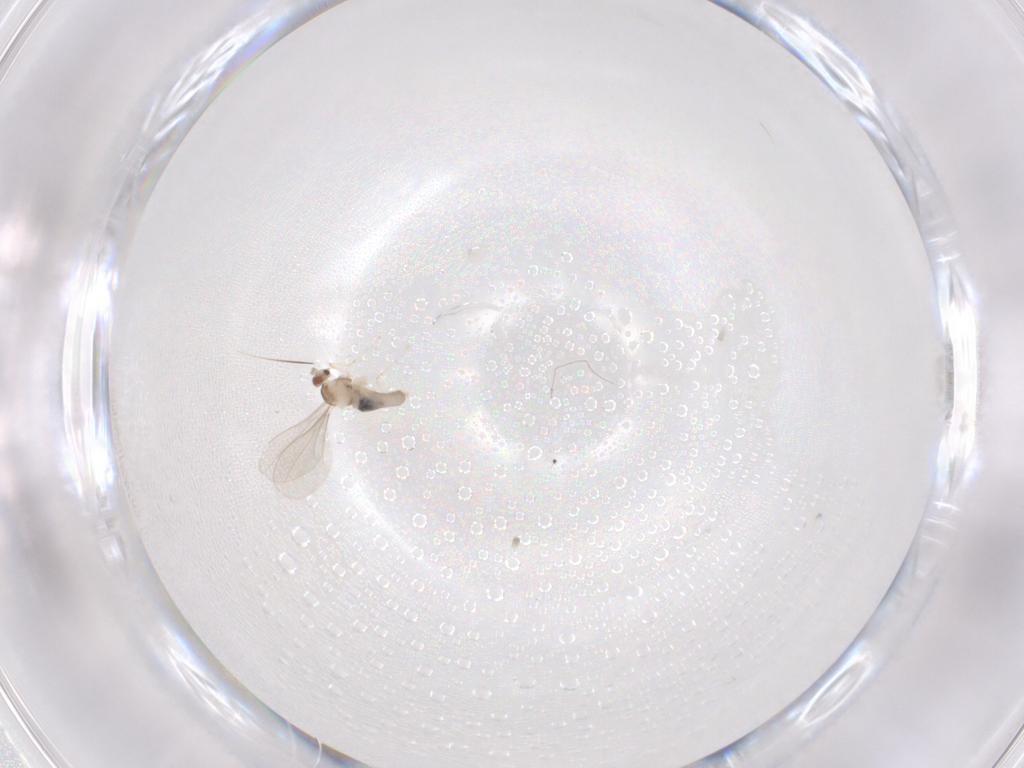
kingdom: Animalia
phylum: Arthropoda
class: Insecta
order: Diptera
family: Cecidomyiidae
